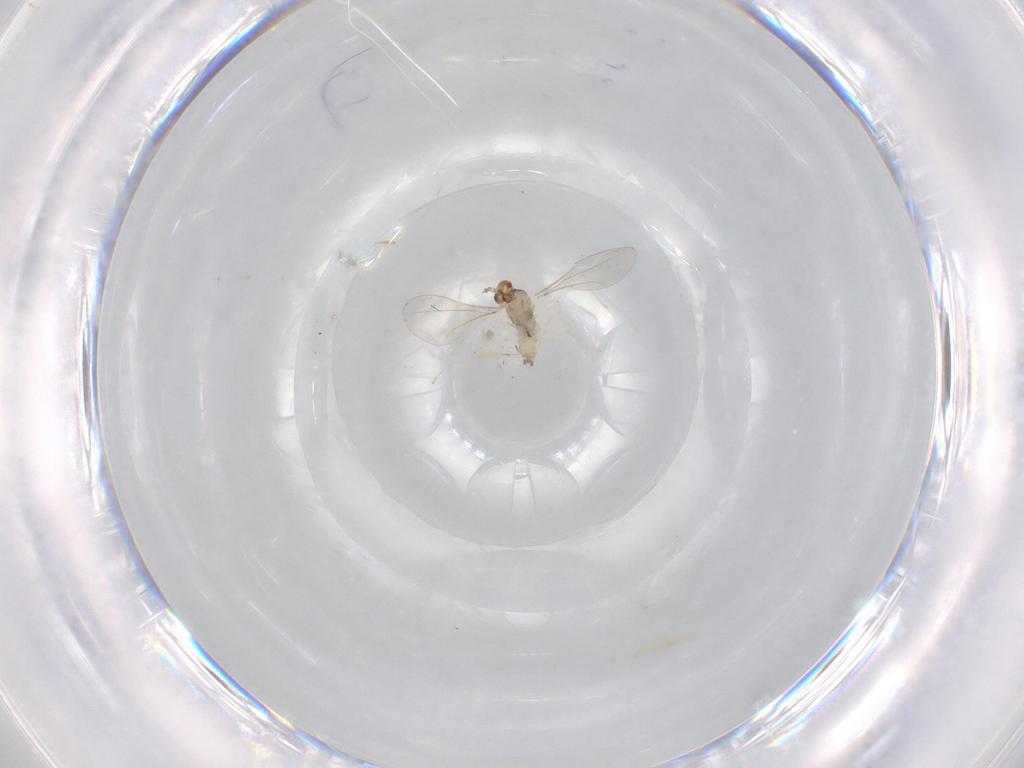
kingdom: Animalia
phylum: Arthropoda
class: Insecta
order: Diptera
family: Cecidomyiidae
